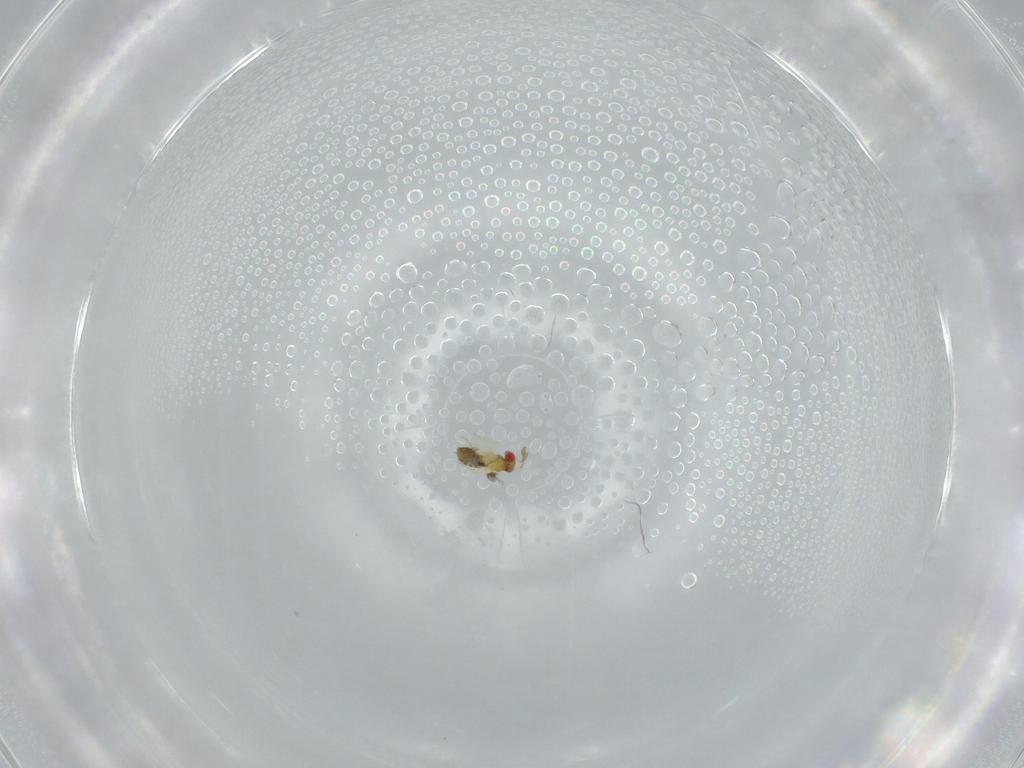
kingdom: Animalia
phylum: Arthropoda
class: Insecta
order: Hymenoptera
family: Trichogrammatidae
